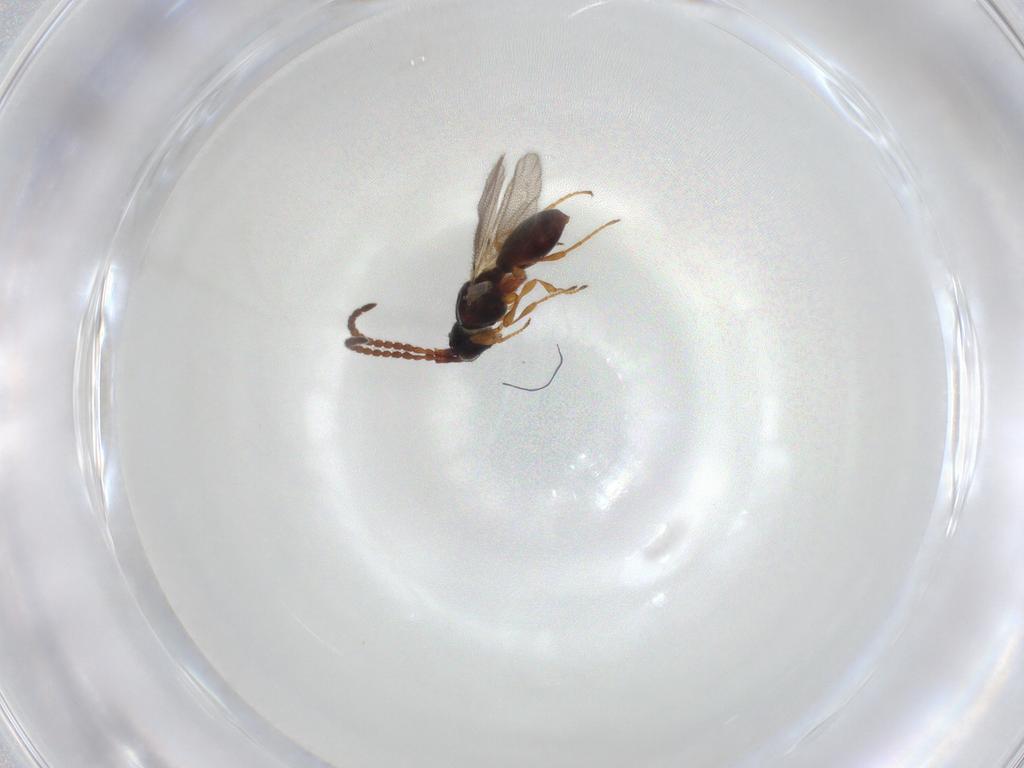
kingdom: Animalia
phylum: Arthropoda
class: Insecta
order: Hymenoptera
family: Diapriidae
